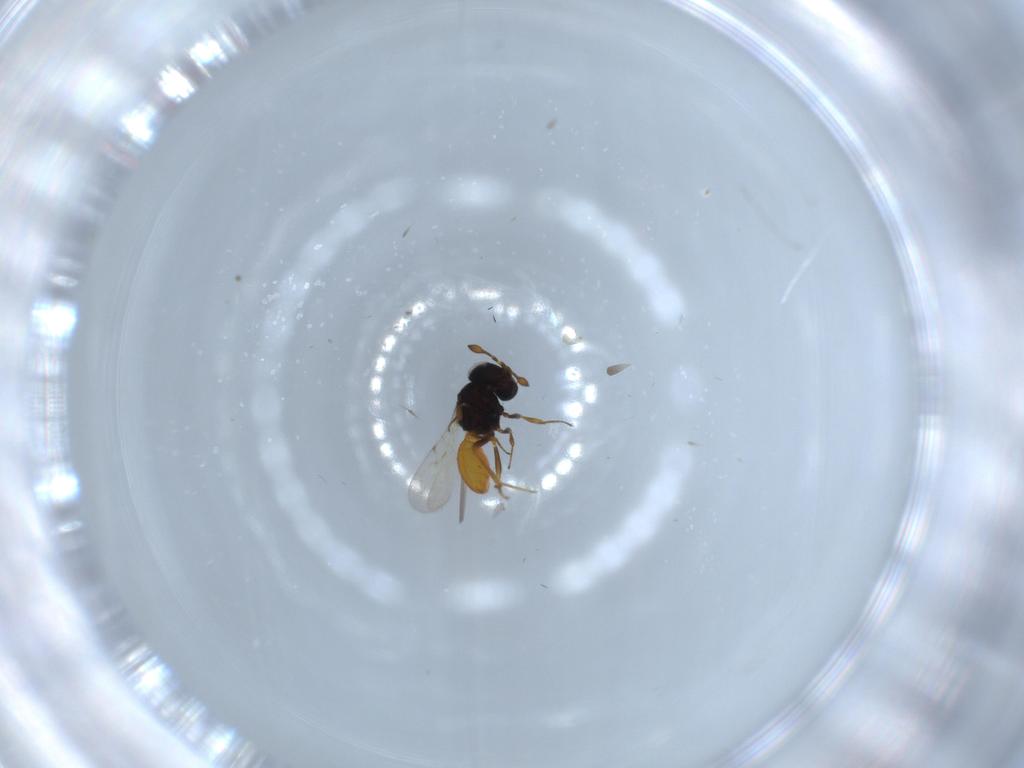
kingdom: Animalia
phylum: Arthropoda
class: Insecta
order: Hymenoptera
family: Scelionidae
